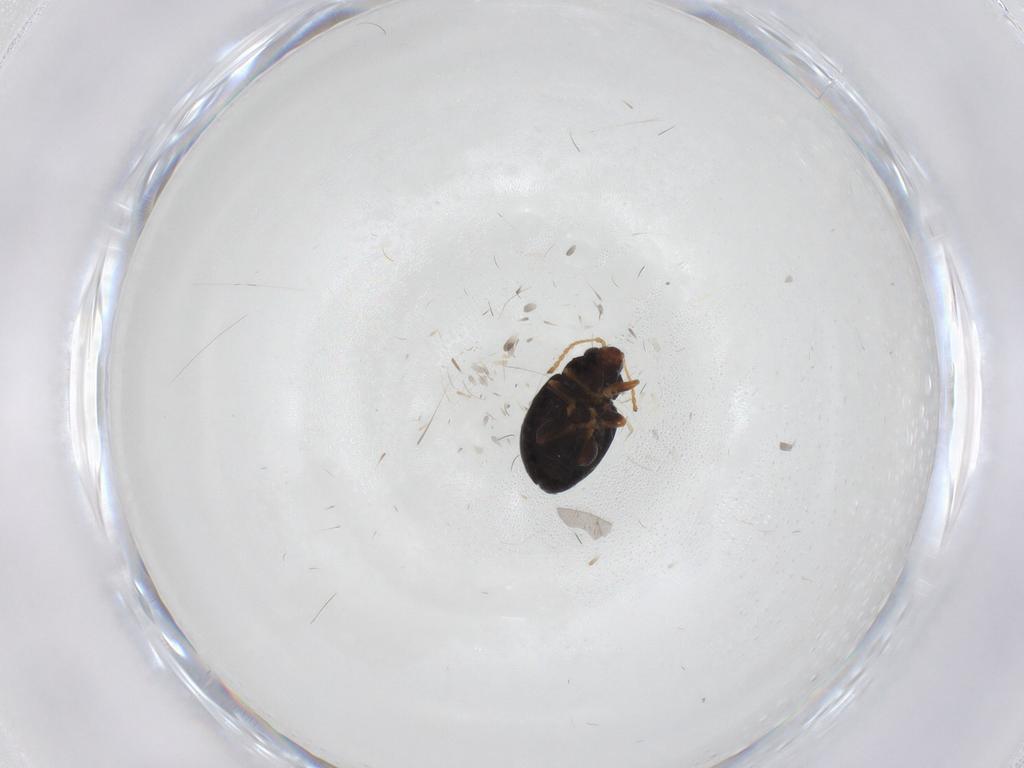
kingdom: Animalia
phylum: Arthropoda
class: Insecta
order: Coleoptera
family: Chrysomelidae
